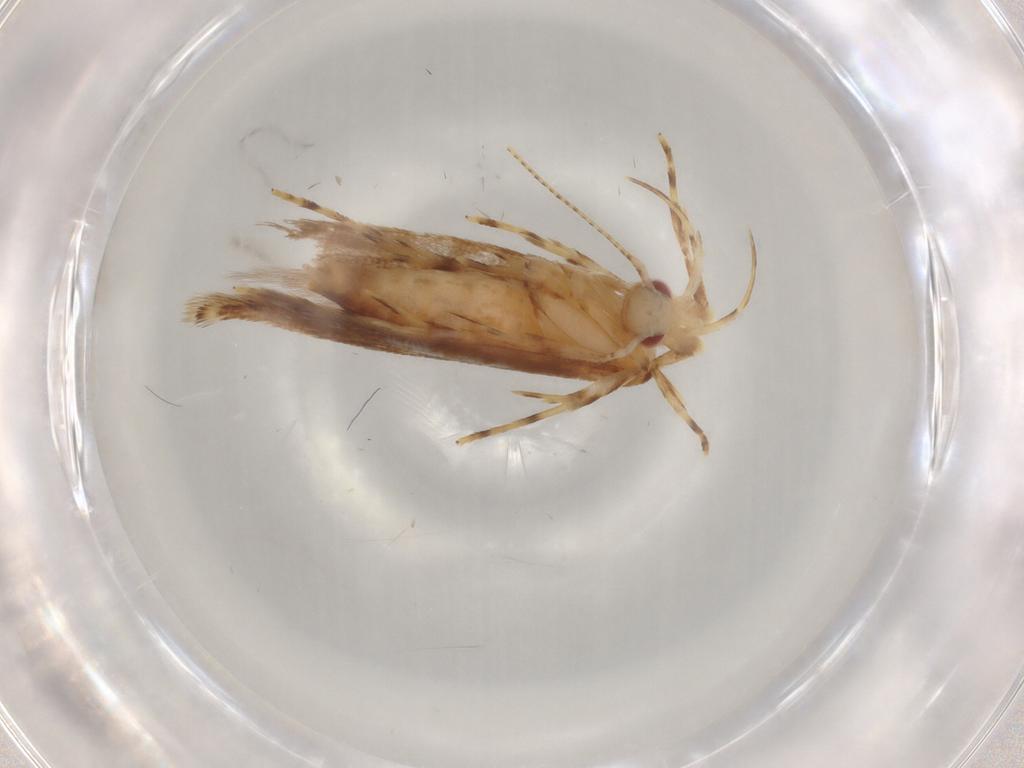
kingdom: Animalia
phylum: Arthropoda
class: Insecta
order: Lepidoptera
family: Cosmopterigidae
